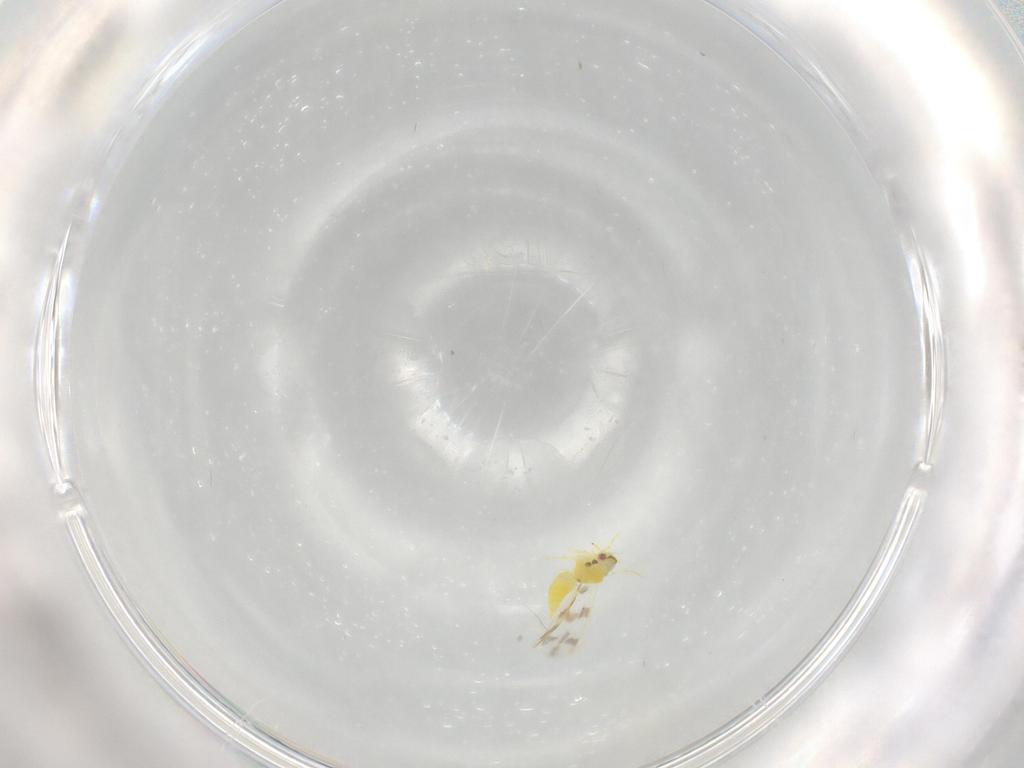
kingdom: Animalia
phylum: Arthropoda
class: Insecta
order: Hemiptera
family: Aleyrodidae
